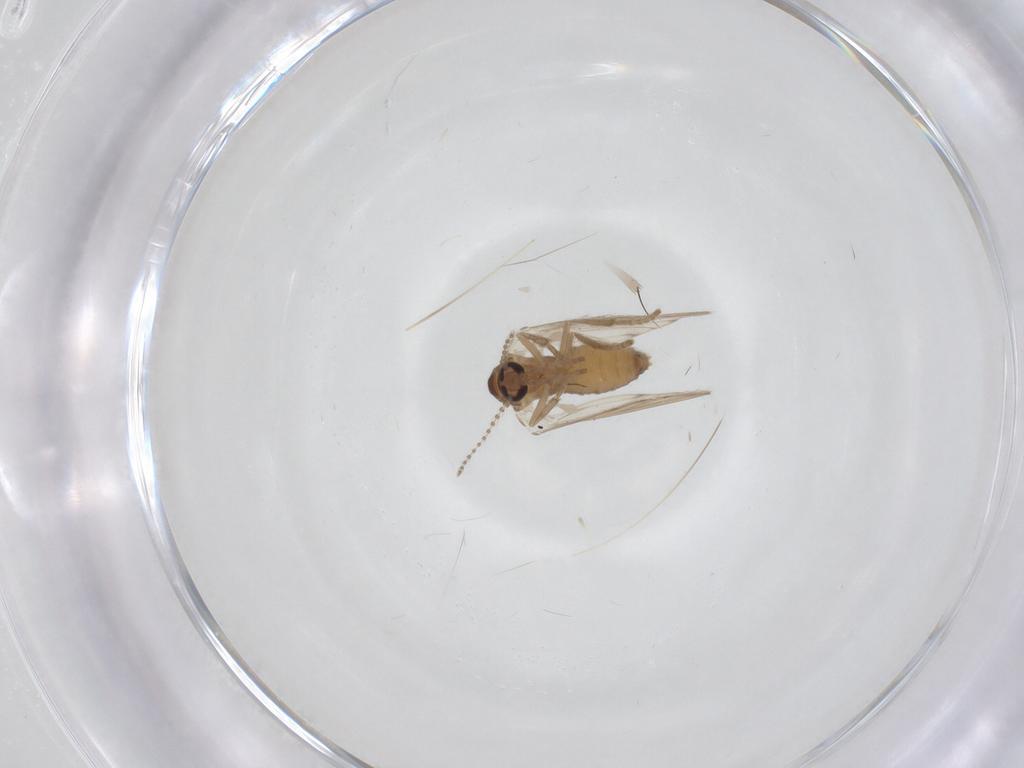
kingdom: Animalia
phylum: Arthropoda
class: Insecta
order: Diptera
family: Psychodidae
